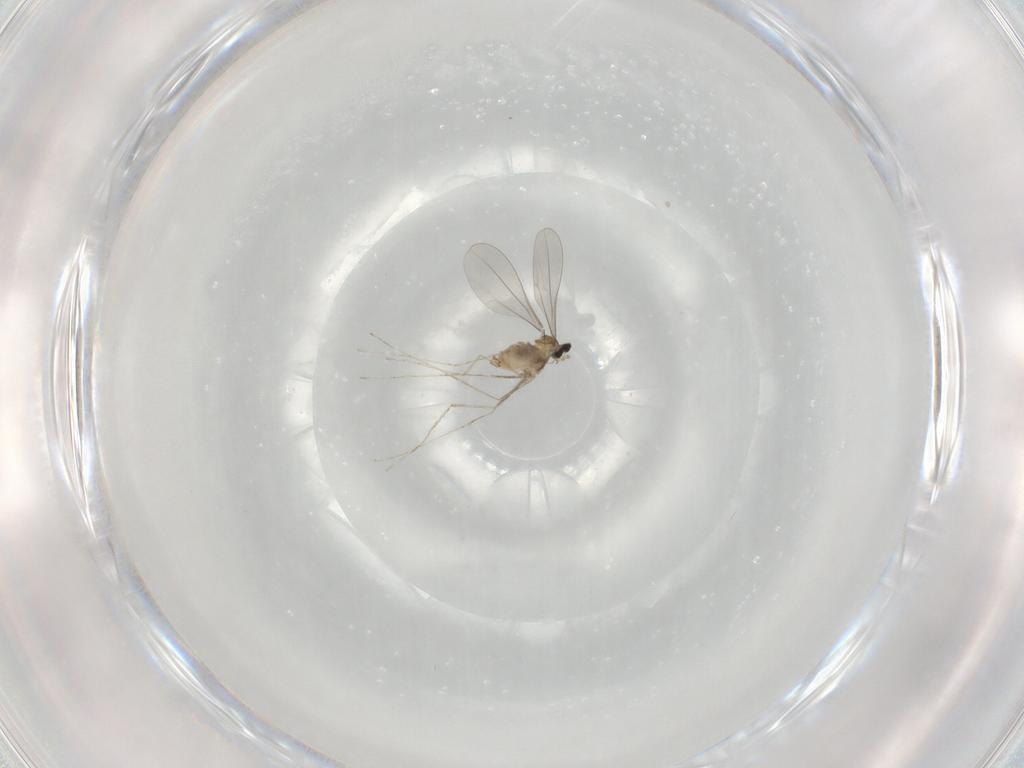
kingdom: Animalia
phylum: Arthropoda
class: Insecta
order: Diptera
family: Cecidomyiidae
